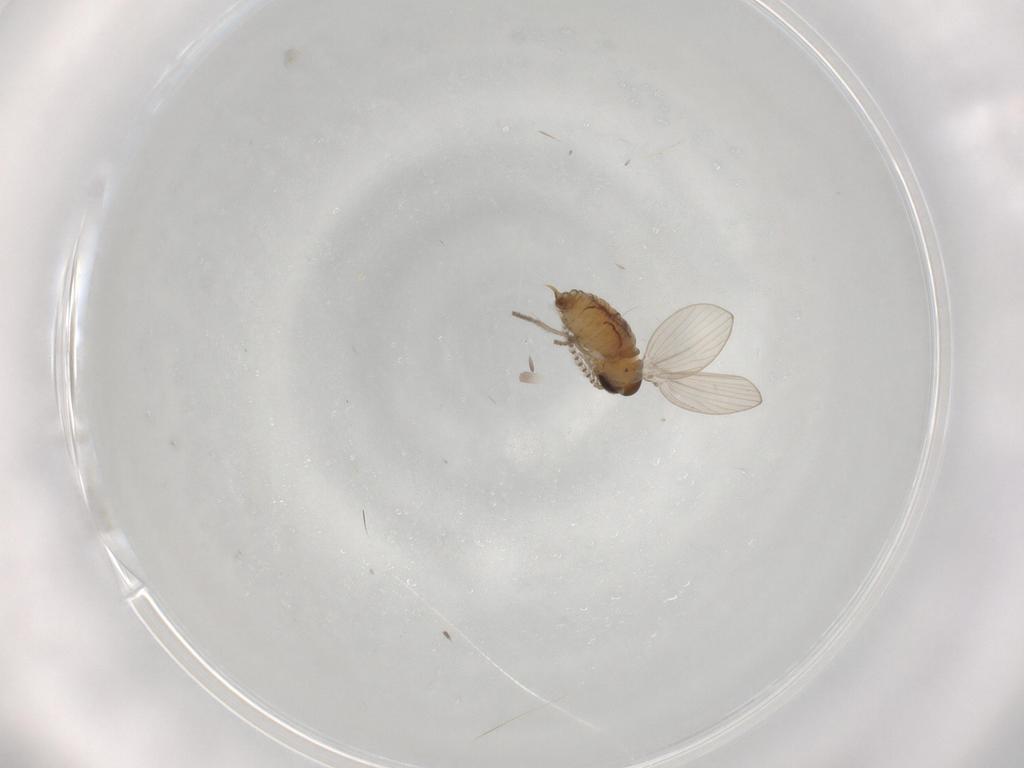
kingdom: Animalia
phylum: Arthropoda
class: Insecta
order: Diptera
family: Psychodidae
